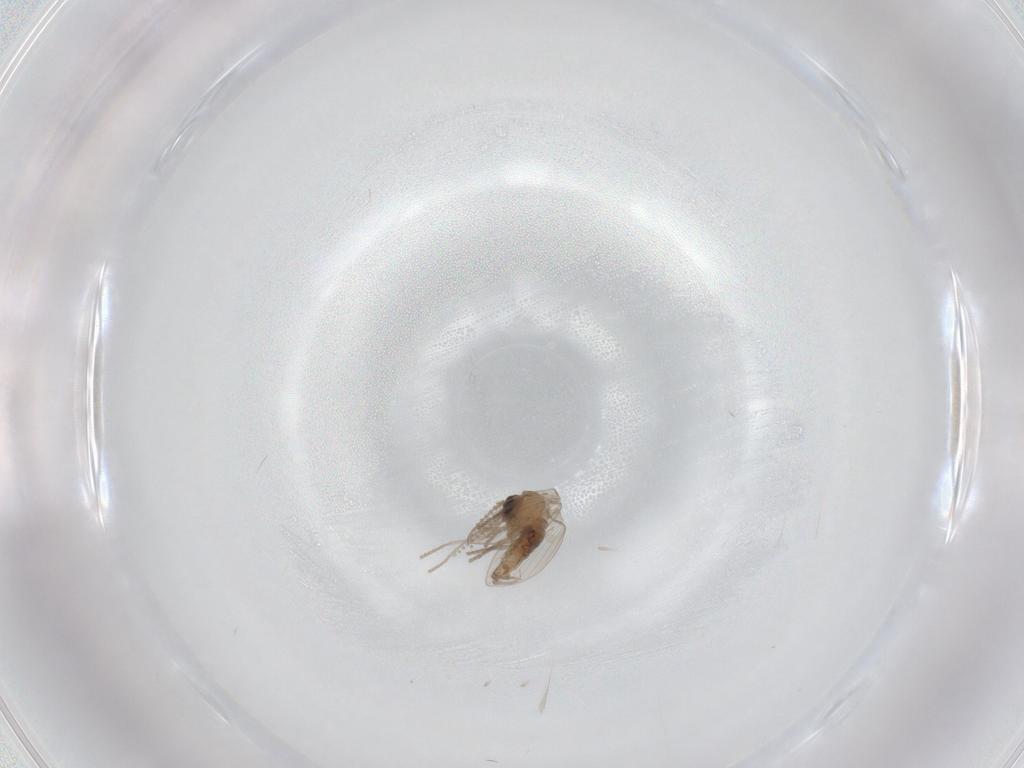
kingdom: Animalia
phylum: Arthropoda
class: Insecta
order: Diptera
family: Psychodidae
